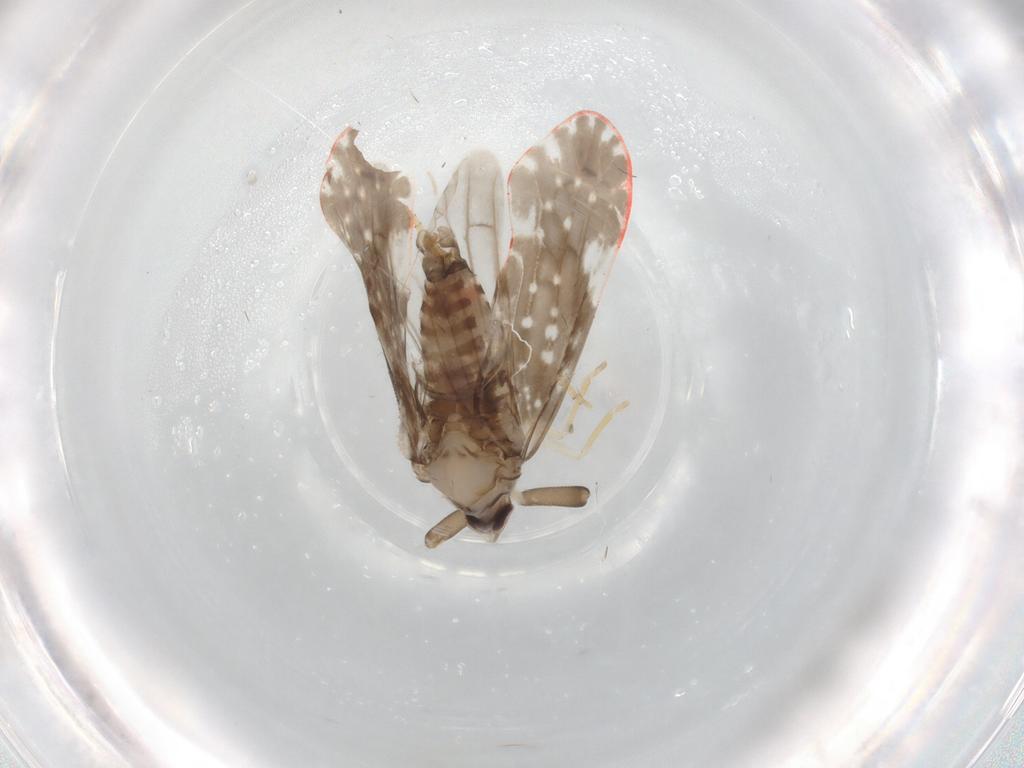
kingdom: Animalia
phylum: Arthropoda
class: Insecta
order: Hemiptera
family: Derbidae
